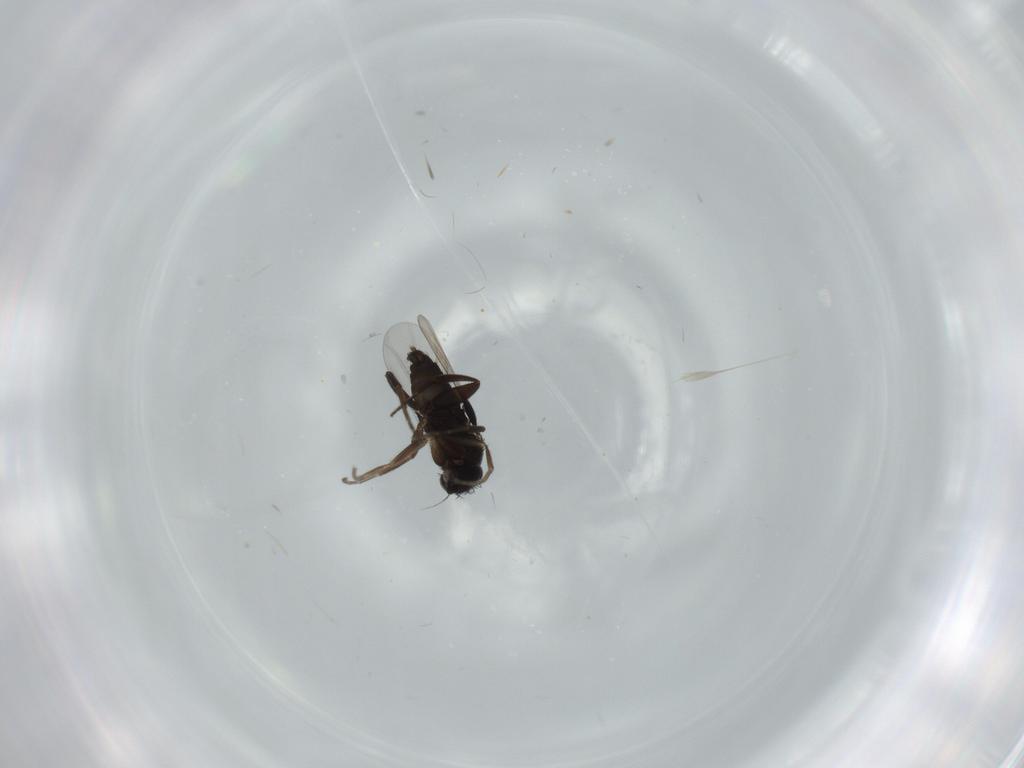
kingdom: Animalia
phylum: Arthropoda
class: Insecta
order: Diptera
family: Phoridae
